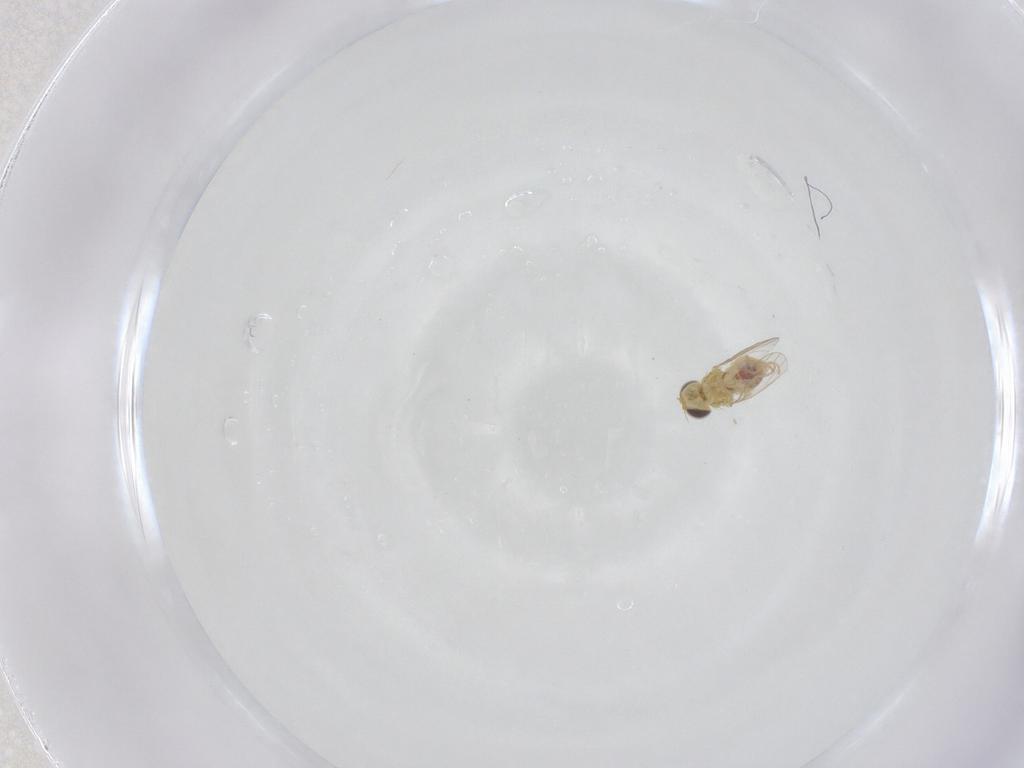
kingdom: Animalia
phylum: Arthropoda
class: Insecta
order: Diptera
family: Chyromyidae
